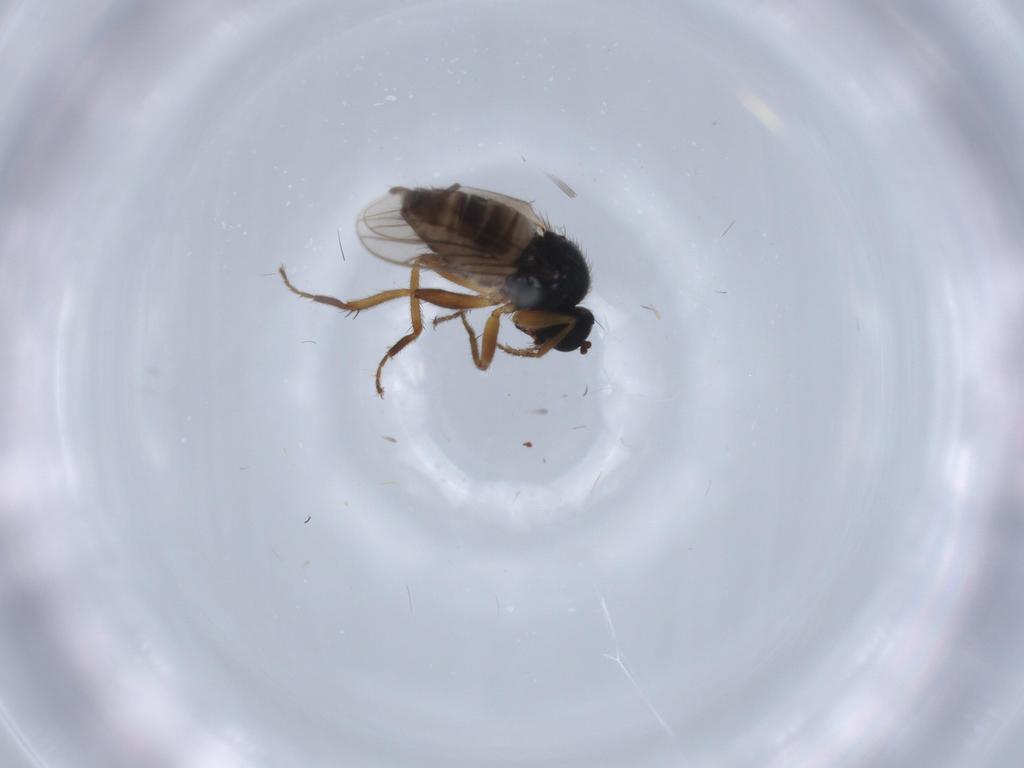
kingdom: Animalia
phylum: Arthropoda
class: Insecta
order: Diptera
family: Hybotidae
